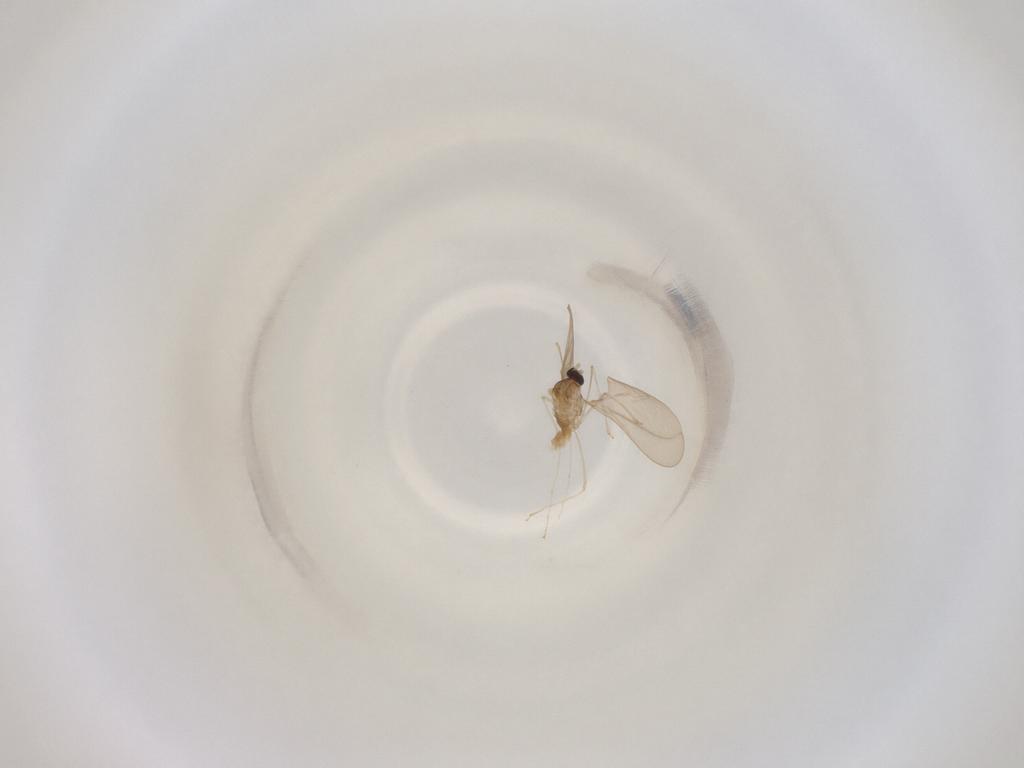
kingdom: Animalia
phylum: Arthropoda
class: Insecta
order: Diptera
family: Cecidomyiidae
